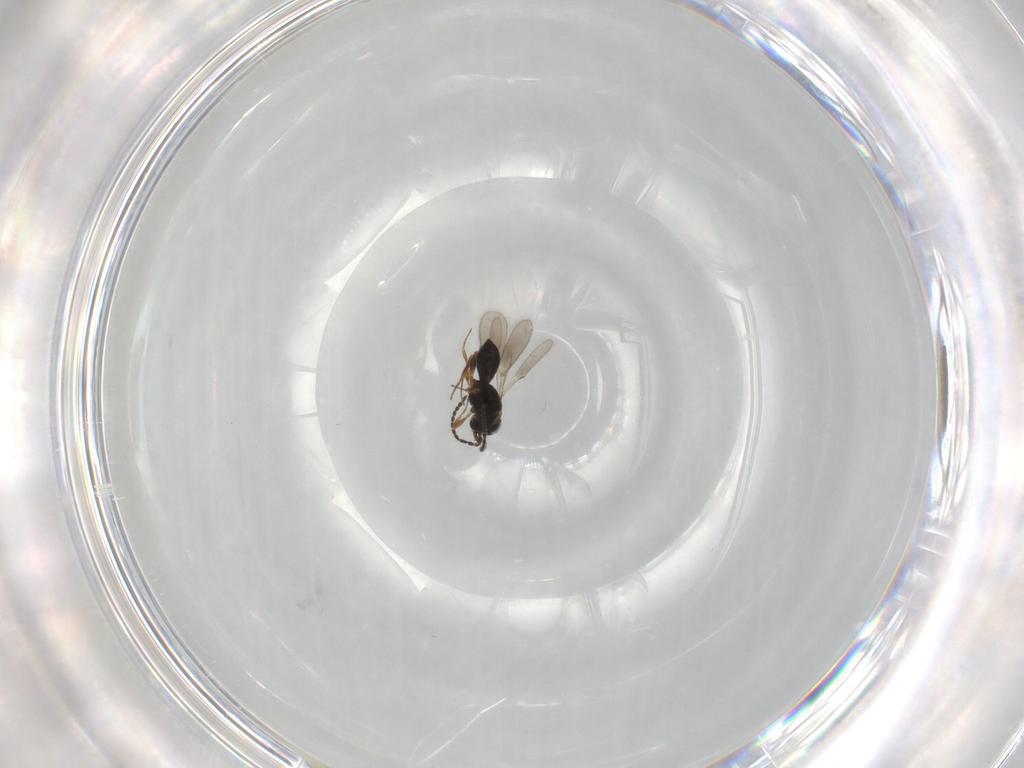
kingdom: Animalia
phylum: Arthropoda
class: Insecta
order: Hymenoptera
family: Scelionidae
